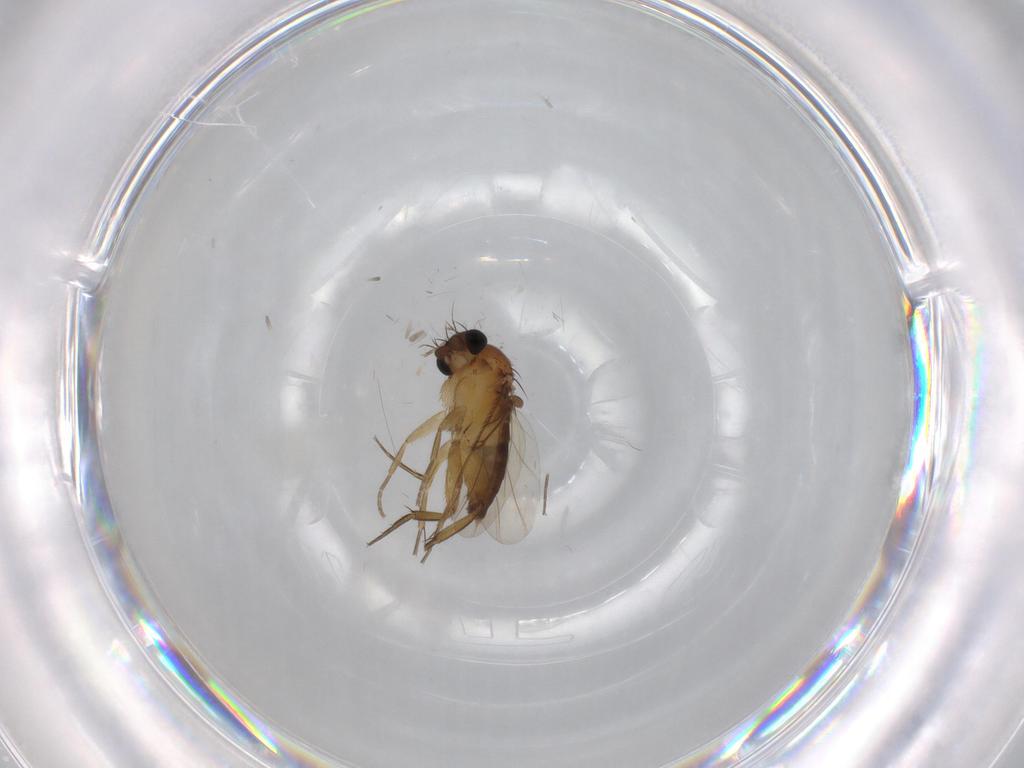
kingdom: Animalia
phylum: Arthropoda
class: Insecta
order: Diptera
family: Phoridae
